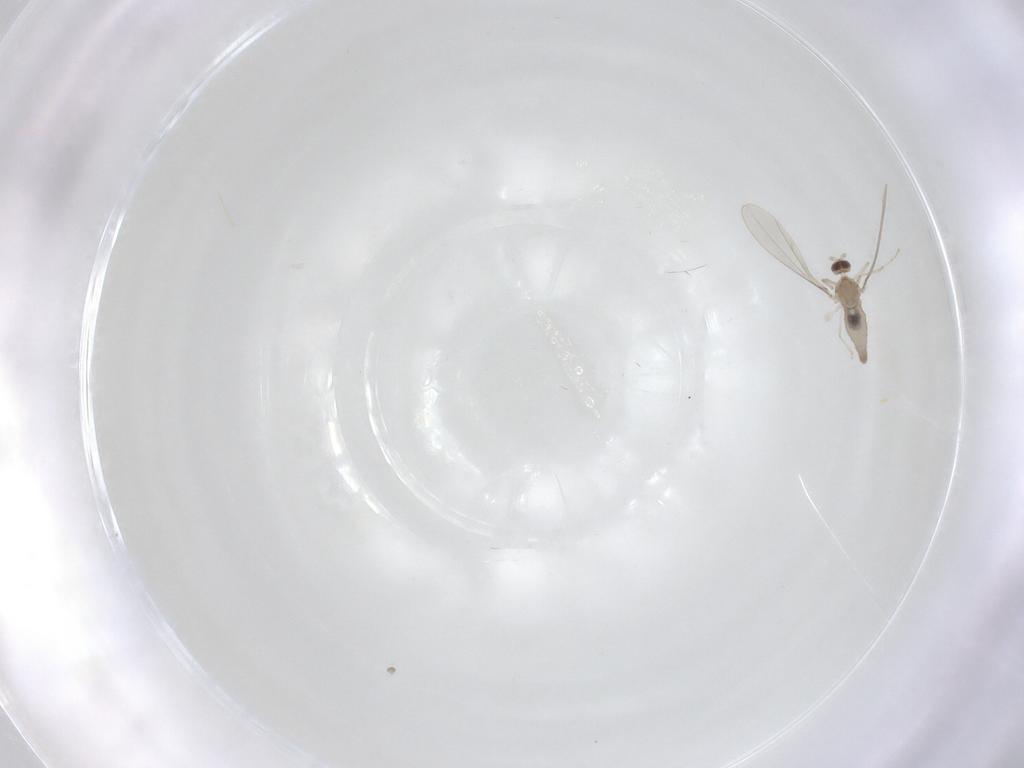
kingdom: Animalia
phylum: Arthropoda
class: Insecta
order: Diptera
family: Cecidomyiidae
